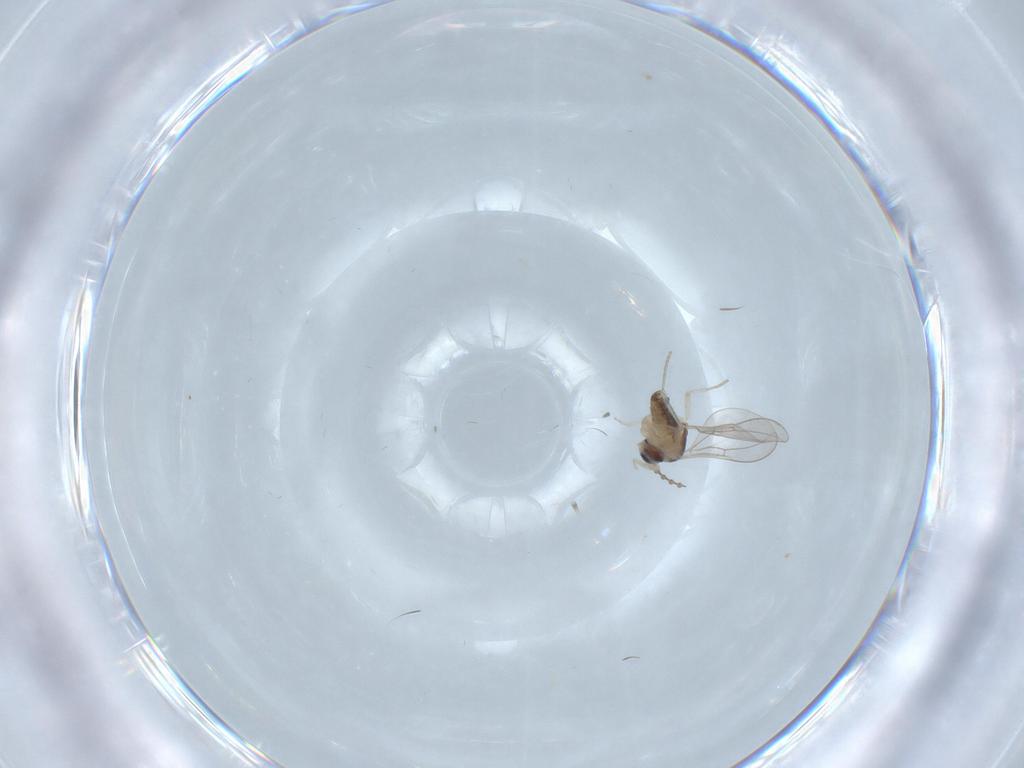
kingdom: Animalia
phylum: Arthropoda
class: Insecta
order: Diptera
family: Cecidomyiidae
